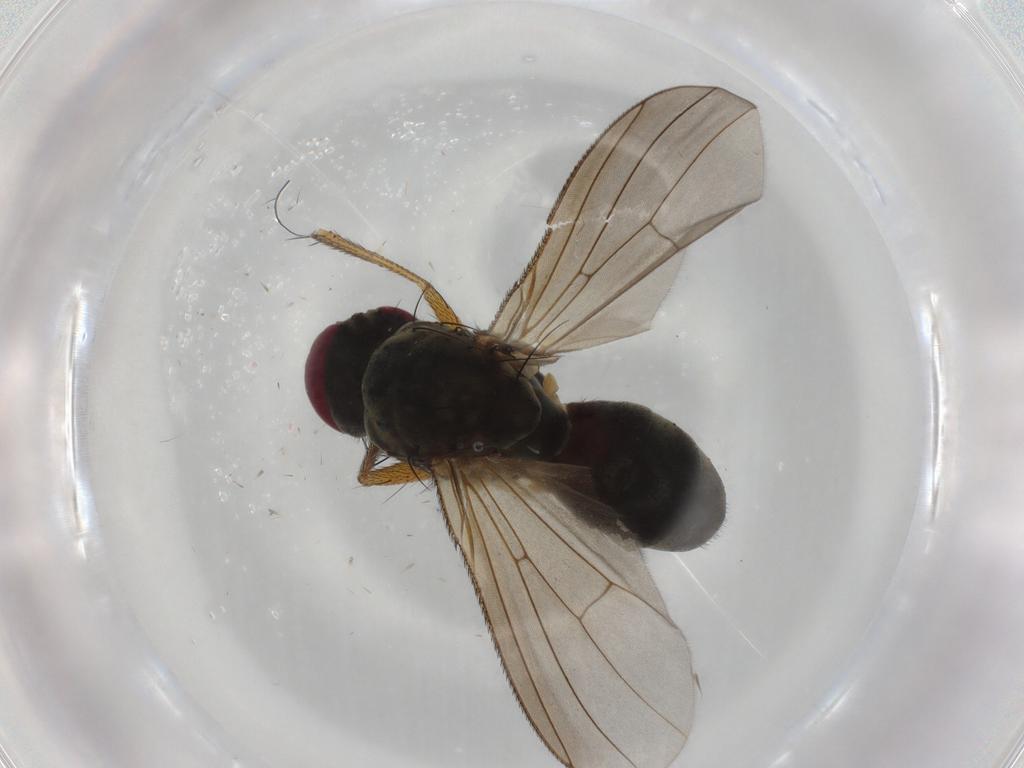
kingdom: Animalia
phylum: Arthropoda
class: Insecta
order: Diptera
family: Muscidae
